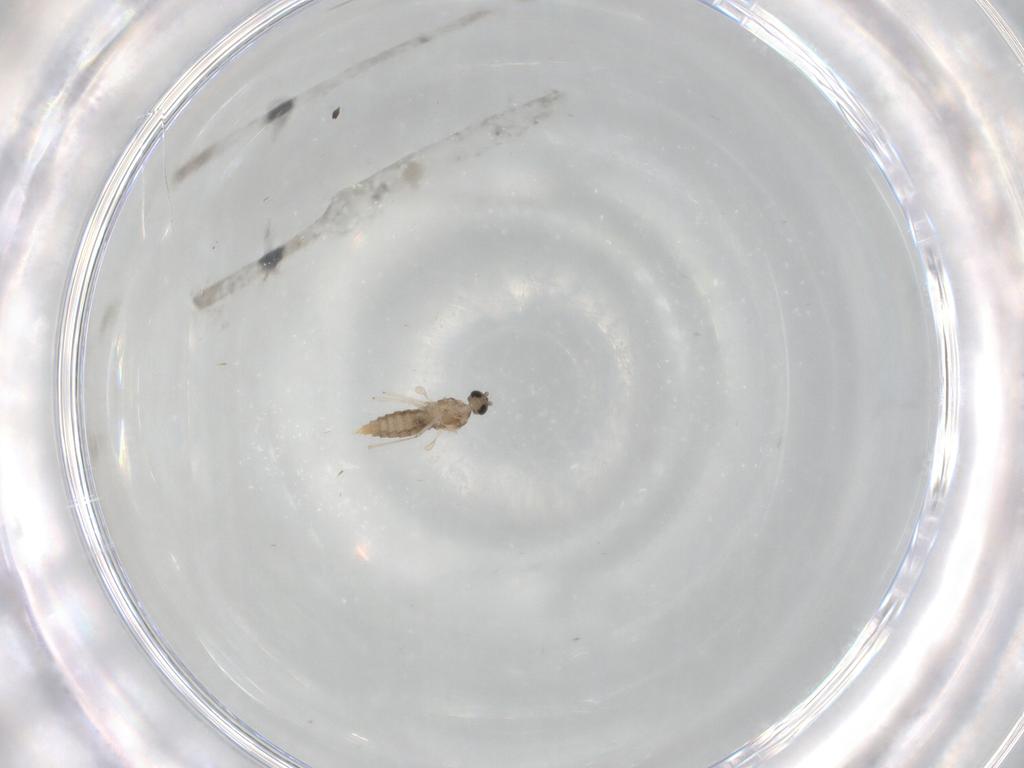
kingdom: Animalia
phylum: Arthropoda
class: Insecta
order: Diptera
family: Cecidomyiidae
